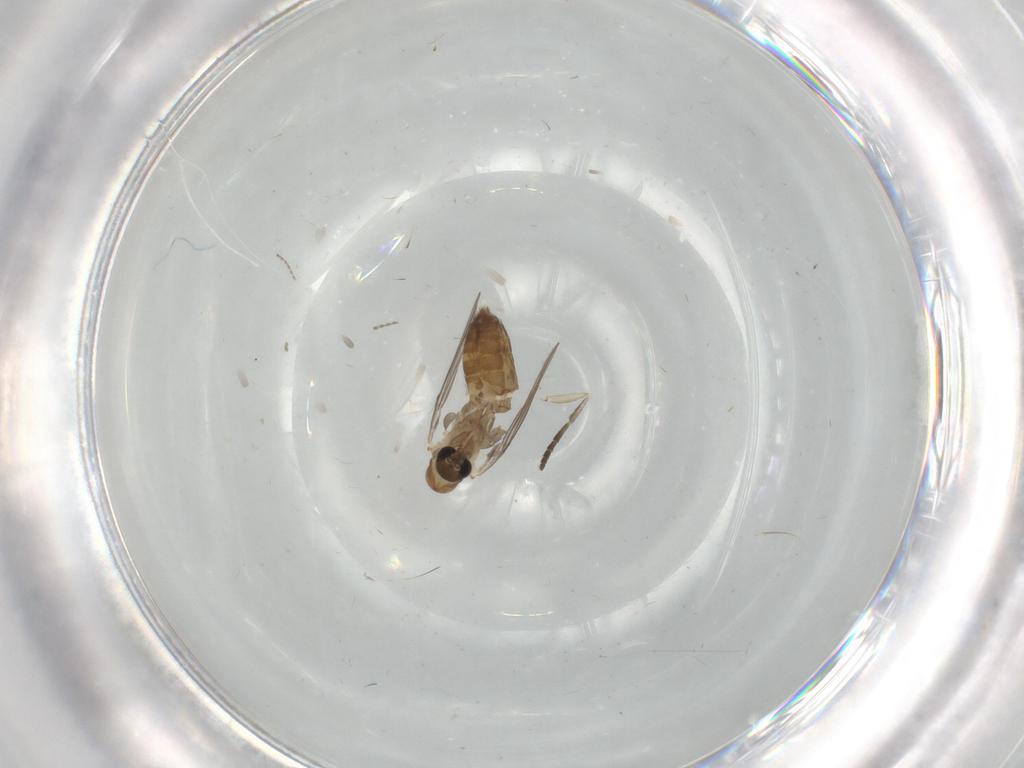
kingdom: Animalia
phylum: Arthropoda
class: Insecta
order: Diptera
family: Psychodidae
